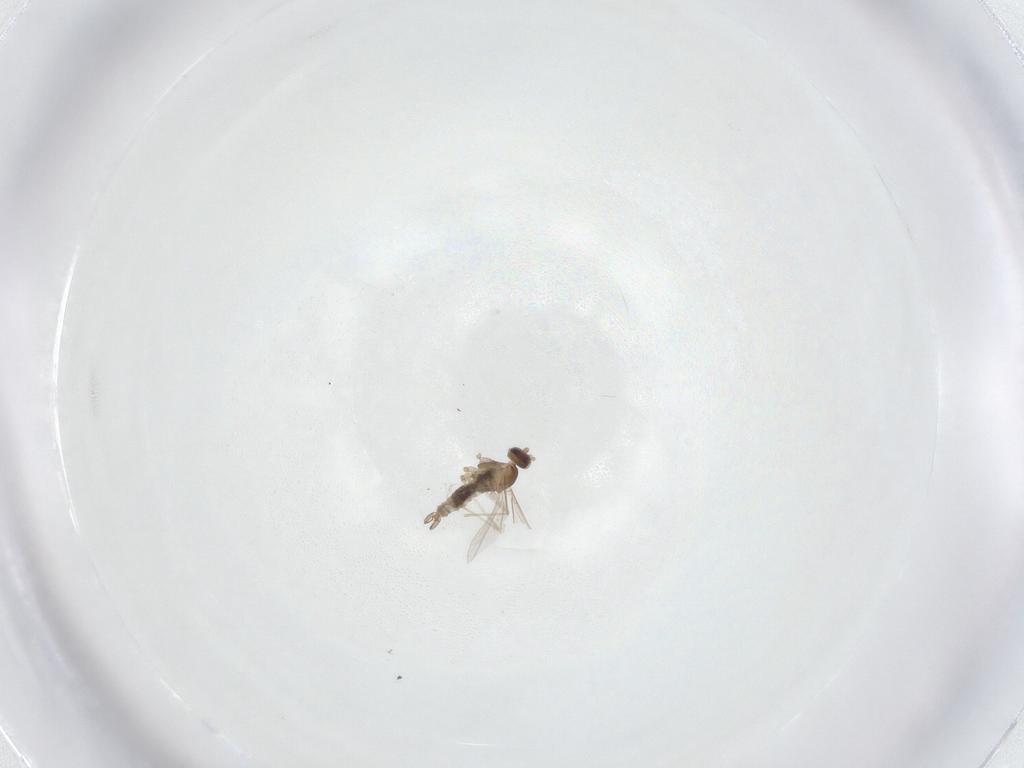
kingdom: Animalia
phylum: Arthropoda
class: Insecta
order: Diptera
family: Cecidomyiidae
